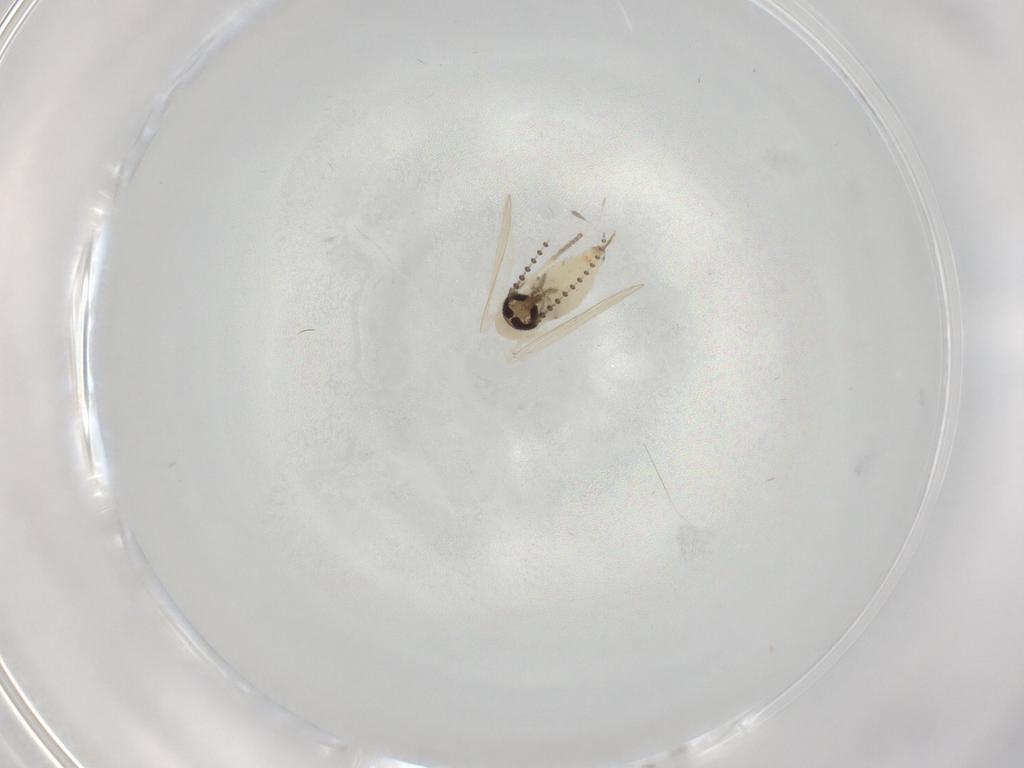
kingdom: Animalia
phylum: Arthropoda
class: Insecta
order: Diptera
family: Psychodidae
